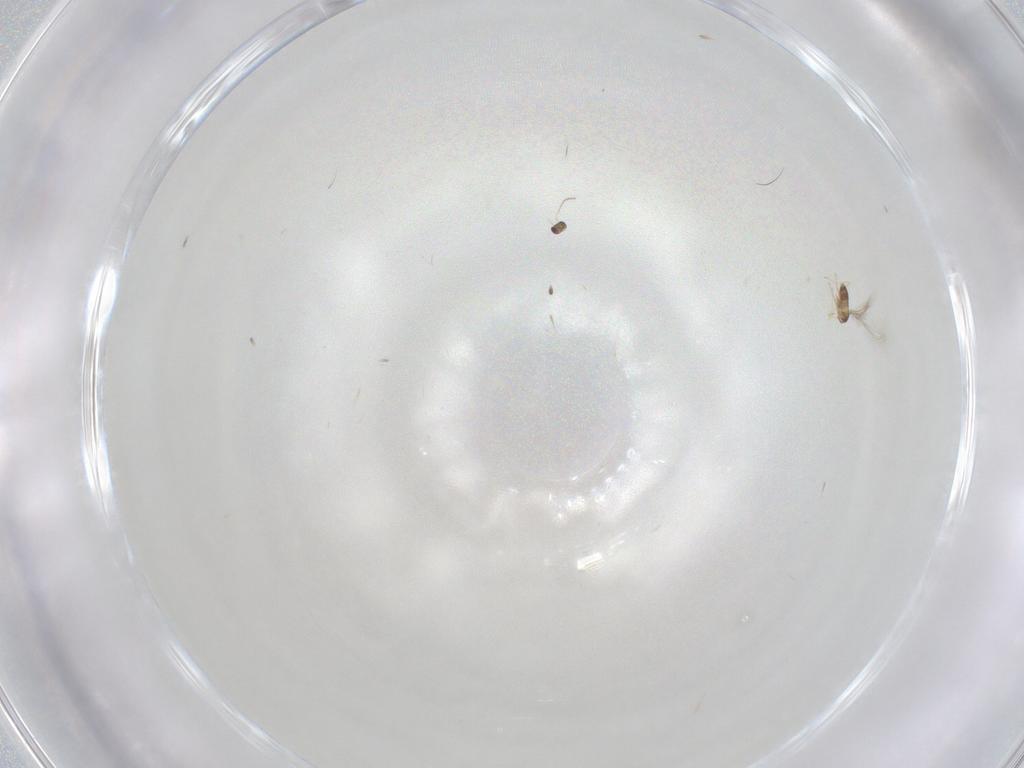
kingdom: Animalia
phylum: Arthropoda
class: Insecta
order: Hymenoptera
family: Mymaridae
